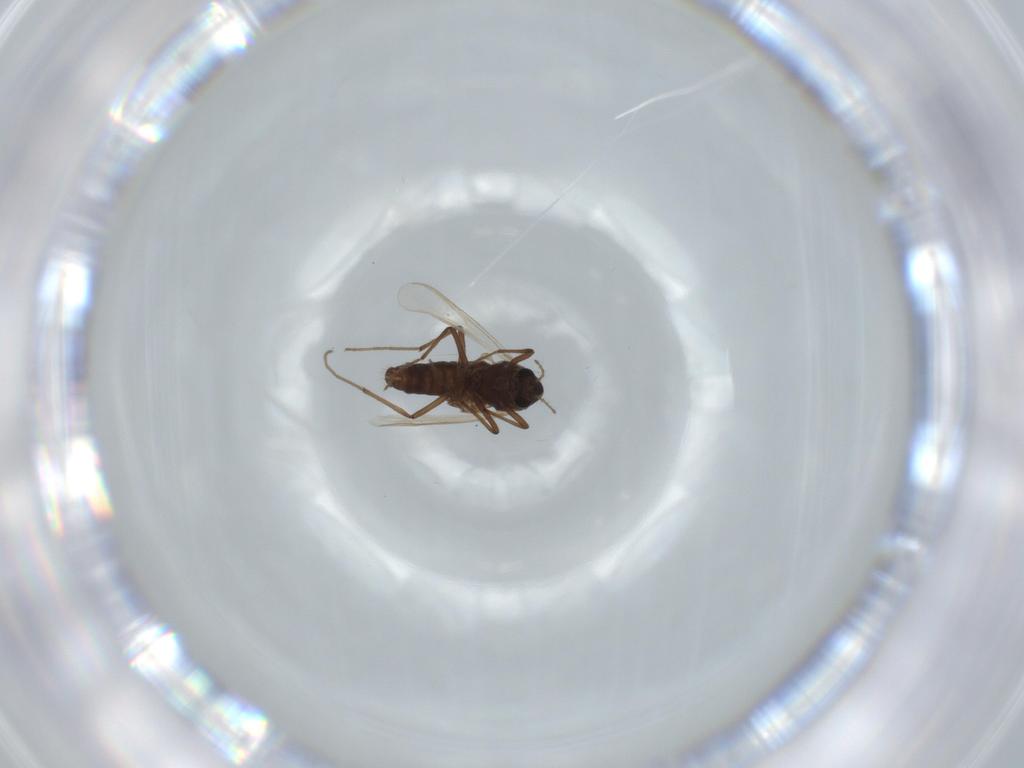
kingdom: Animalia
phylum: Arthropoda
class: Insecta
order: Diptera
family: Chironomidae
